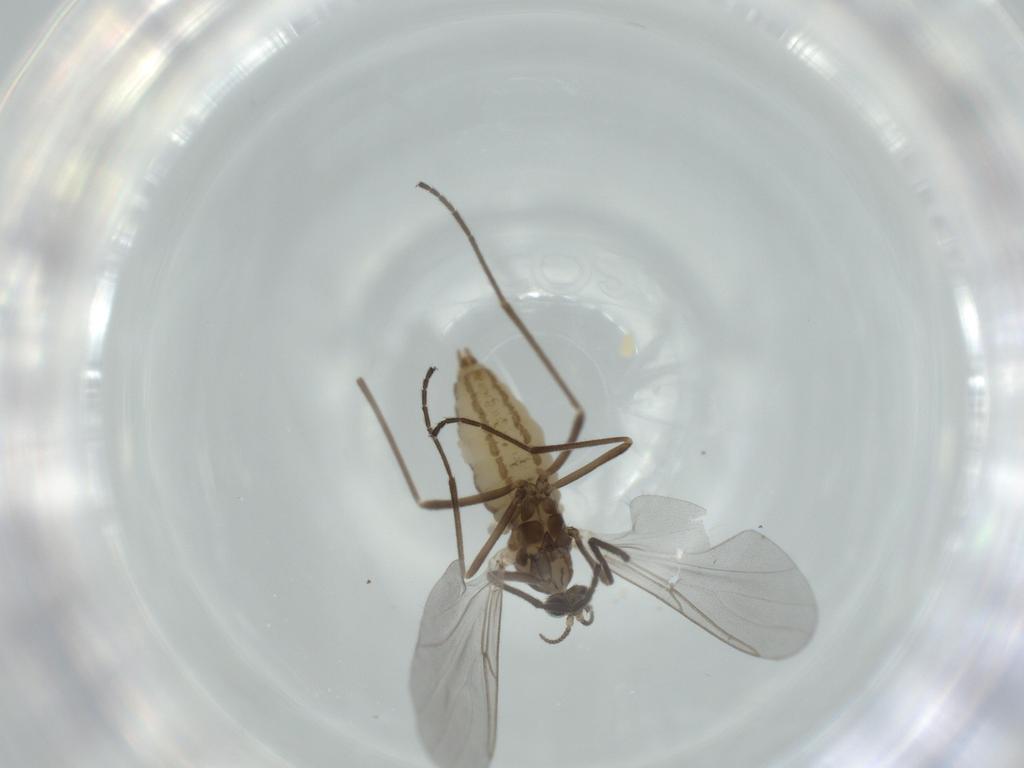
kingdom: Animalia
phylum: Arthropoda
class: Insecta
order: Diptera
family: Cecidomyiidae
